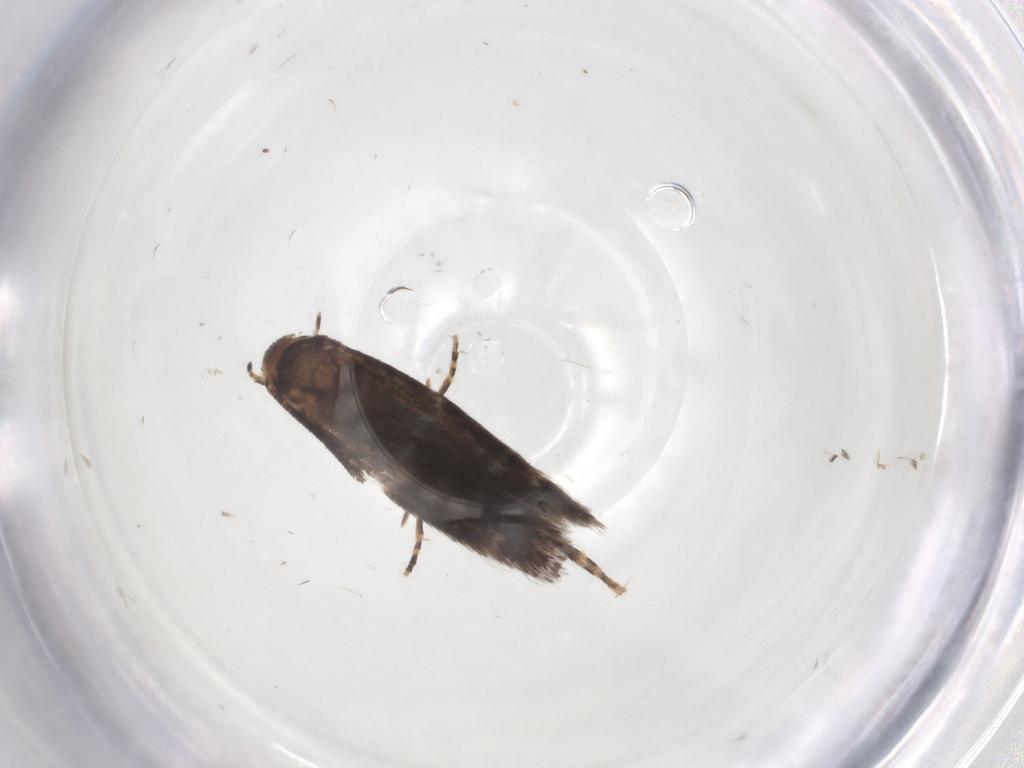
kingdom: Animalia
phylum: Arthropoda
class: Insecta
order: Lepidoptera
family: Elachistidae
